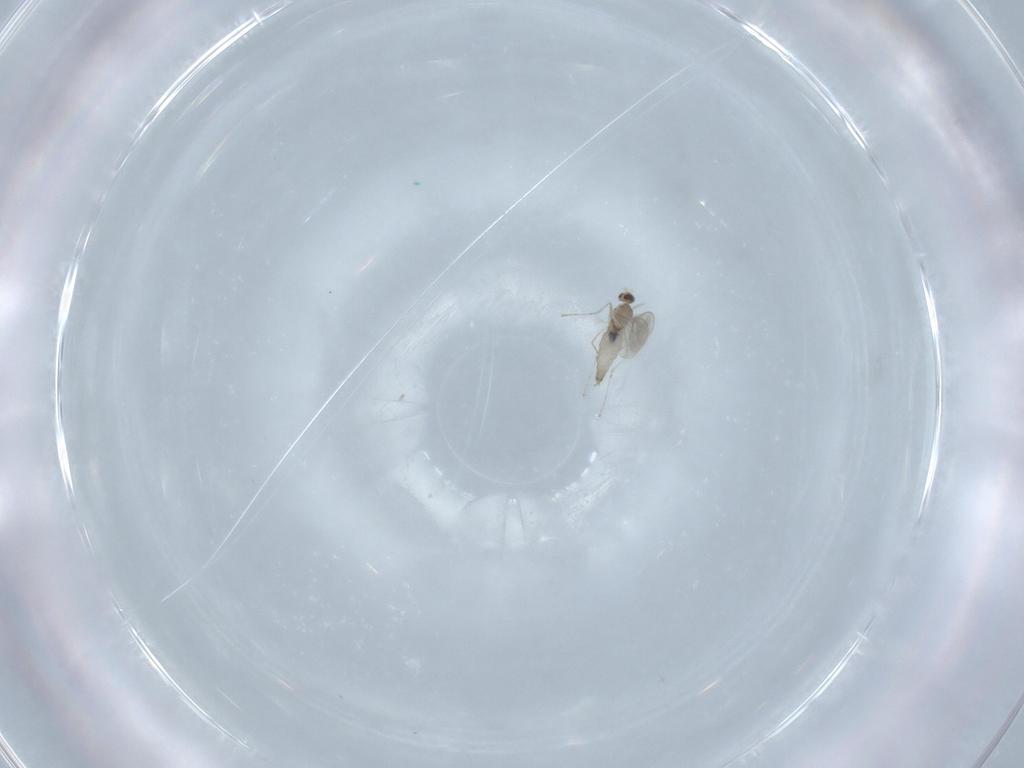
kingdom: Animalia
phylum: Arthropoda
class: Insecta
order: Diptera
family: Cecidomyiidae
